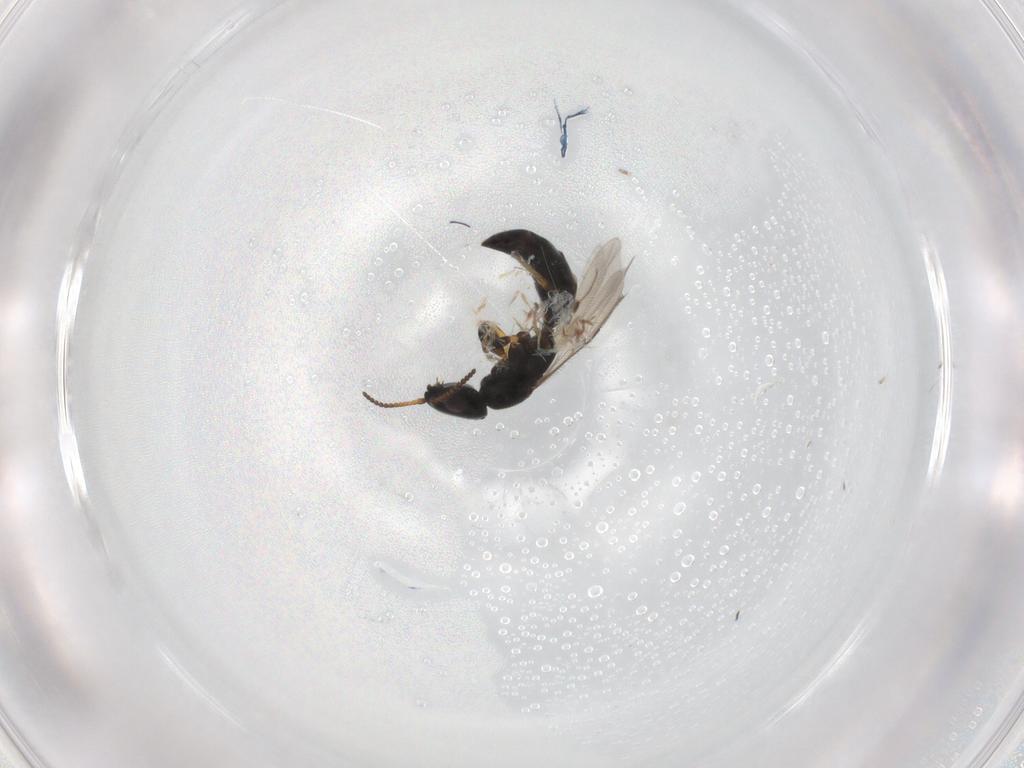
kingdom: Animalia
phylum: Arthropoda
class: Insecta
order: Hymenoptera
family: Bethylidae
